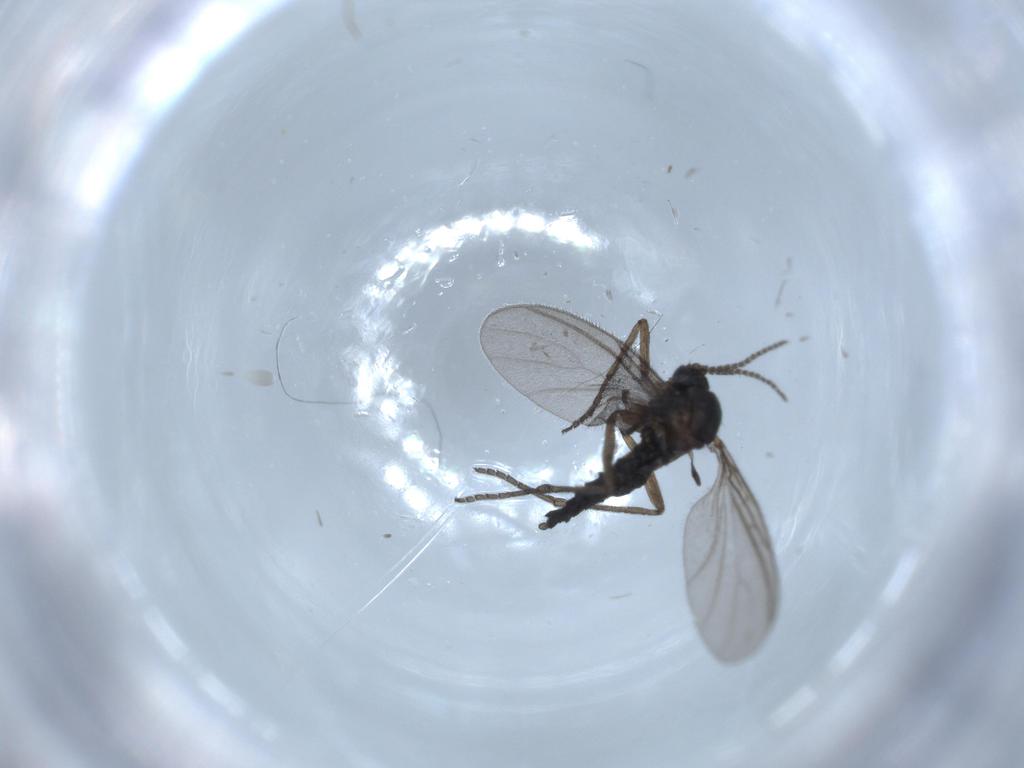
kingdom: Animalia
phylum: Arthropoda
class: Insecta
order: Diptera
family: Sciaridae
